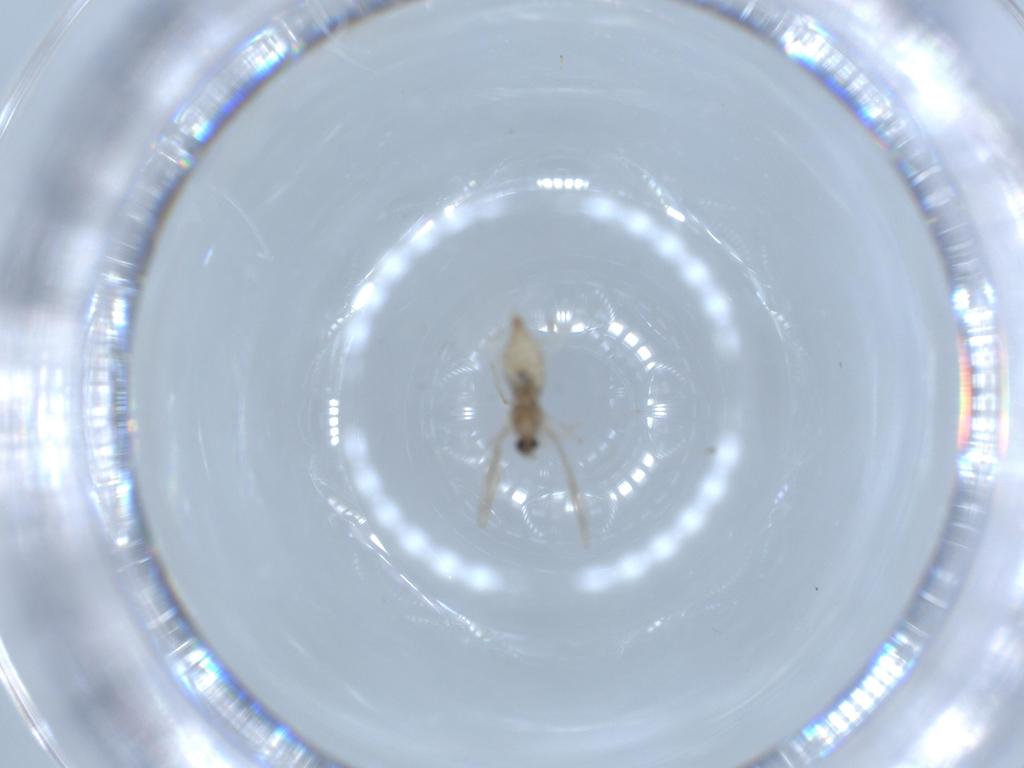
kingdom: Animalia
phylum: Arthropoda
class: Insecta
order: Diptera
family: Cecidomyiidae
